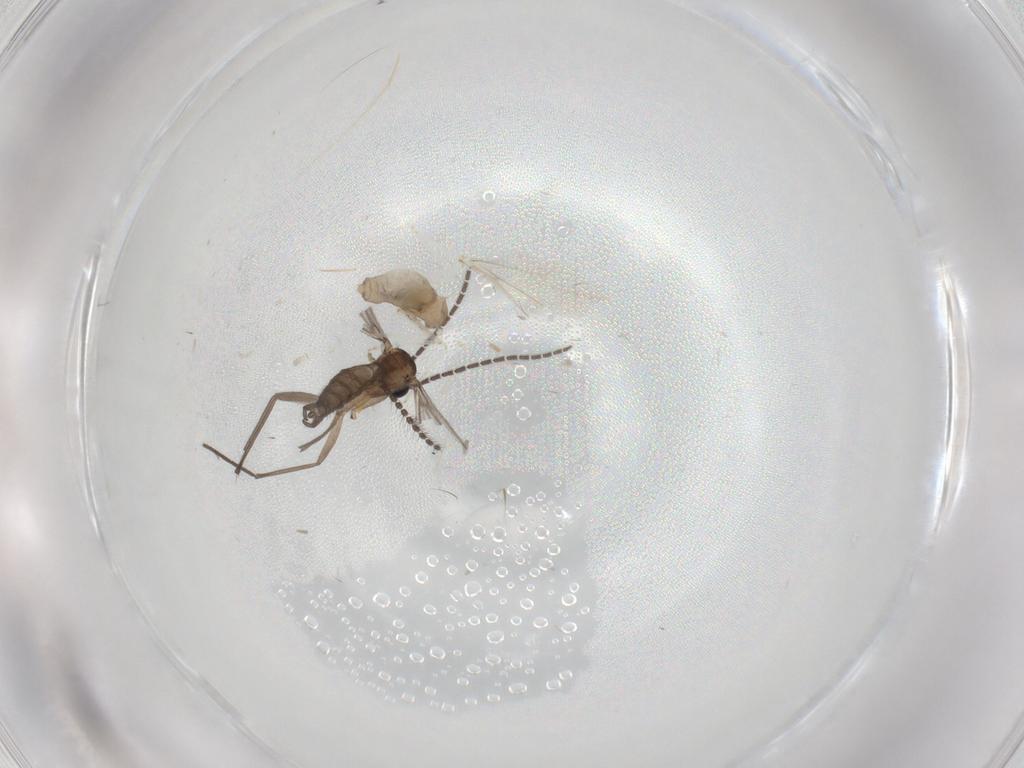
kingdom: Animalia
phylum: Arthropoda
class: Insecta
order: Diptera
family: Sciaridae
